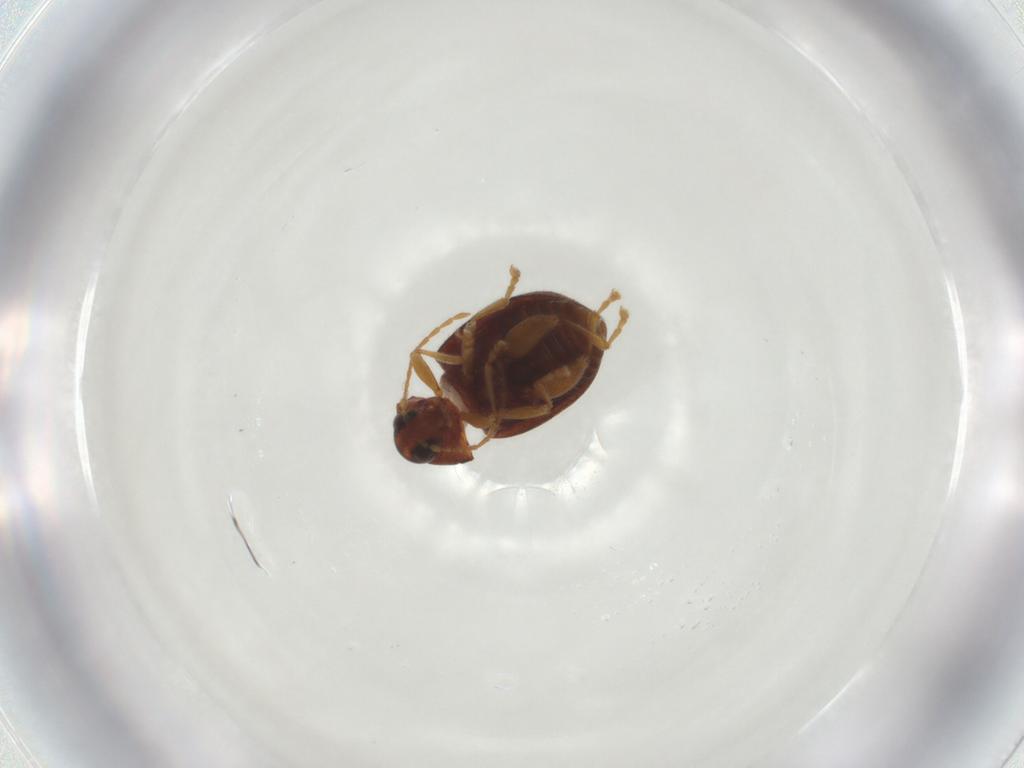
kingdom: Animalia
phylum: Arthropoda
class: Insecta
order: Coleoptera
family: Chrysomelidae
